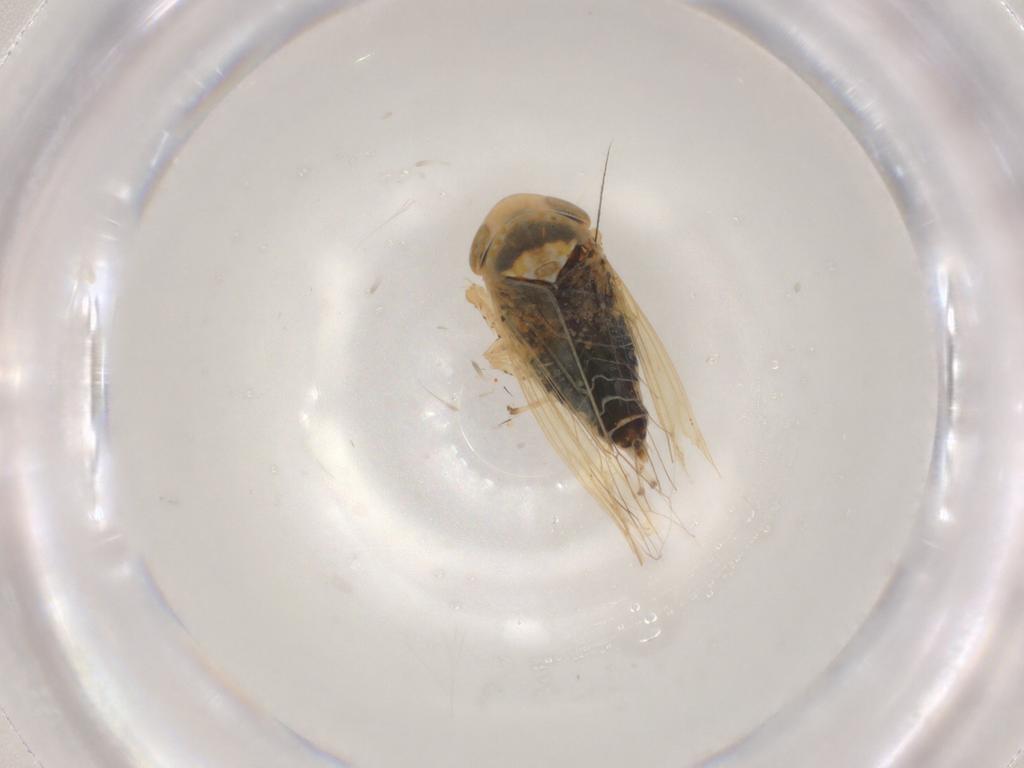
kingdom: Animalia
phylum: Arthropoda
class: Insecta
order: Hemiptera
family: Cicadellidae
